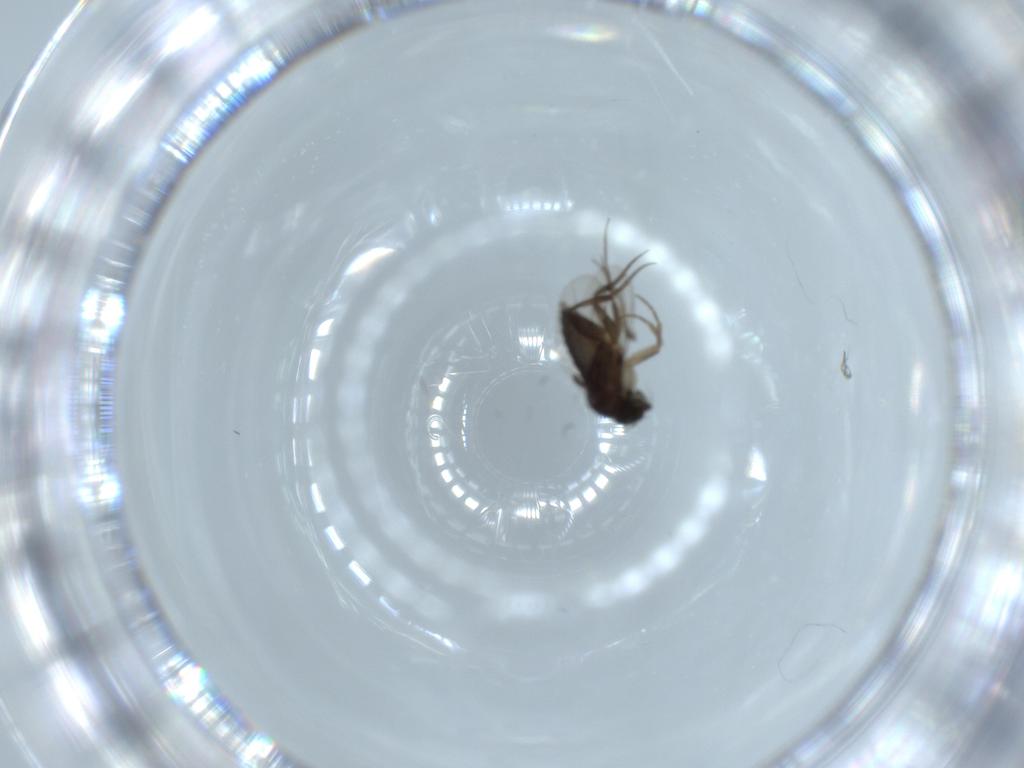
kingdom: Animalia
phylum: Arthropoda
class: Insecta
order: Diptera
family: Phoridae
